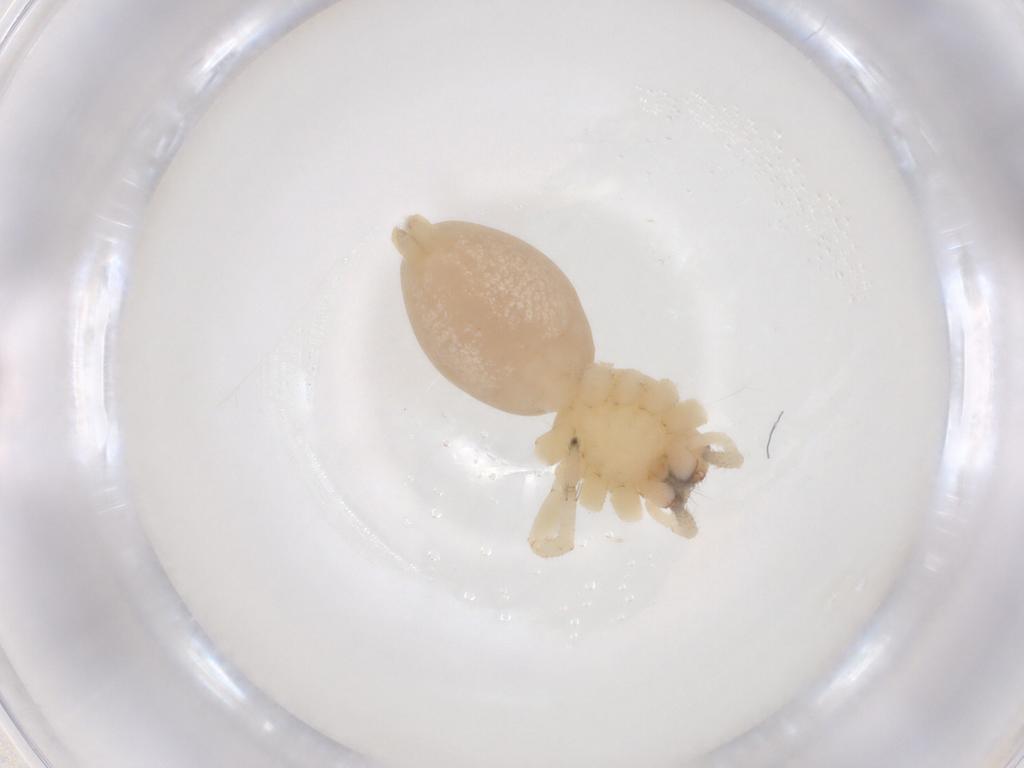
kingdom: Animalia
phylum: Arthropoda
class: Arachnida
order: Araneae
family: Cheiracanthiidae
